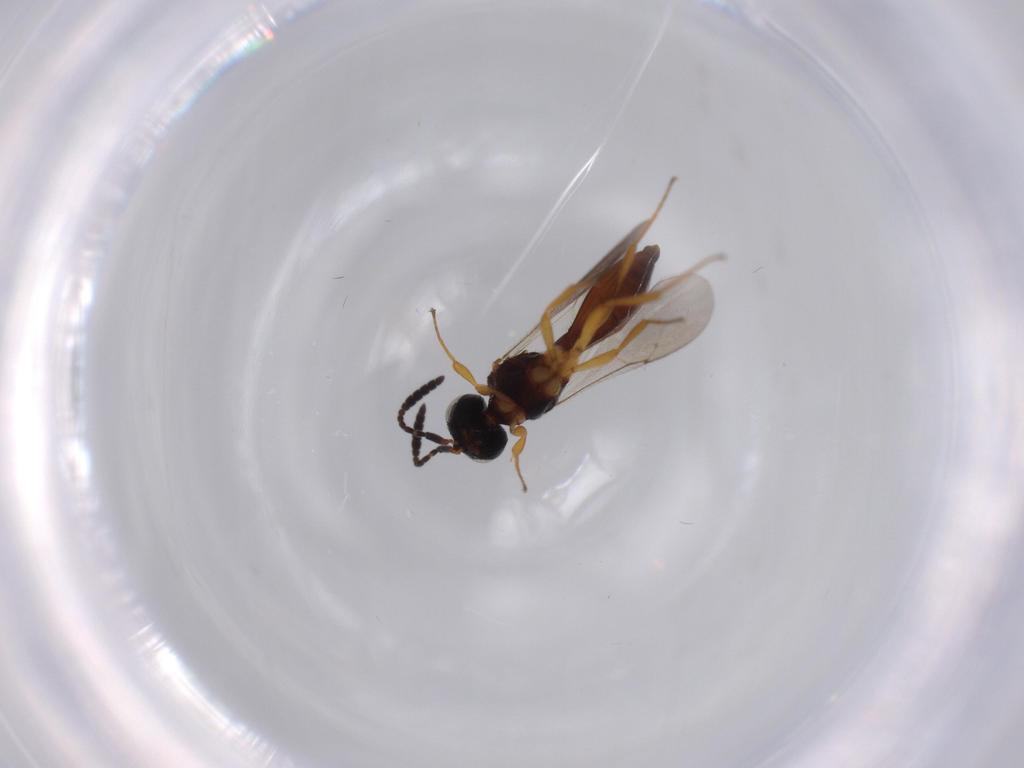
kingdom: Animalia
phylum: Arthropoda
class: Insecta
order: Hymenoptera
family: Scelionidae
